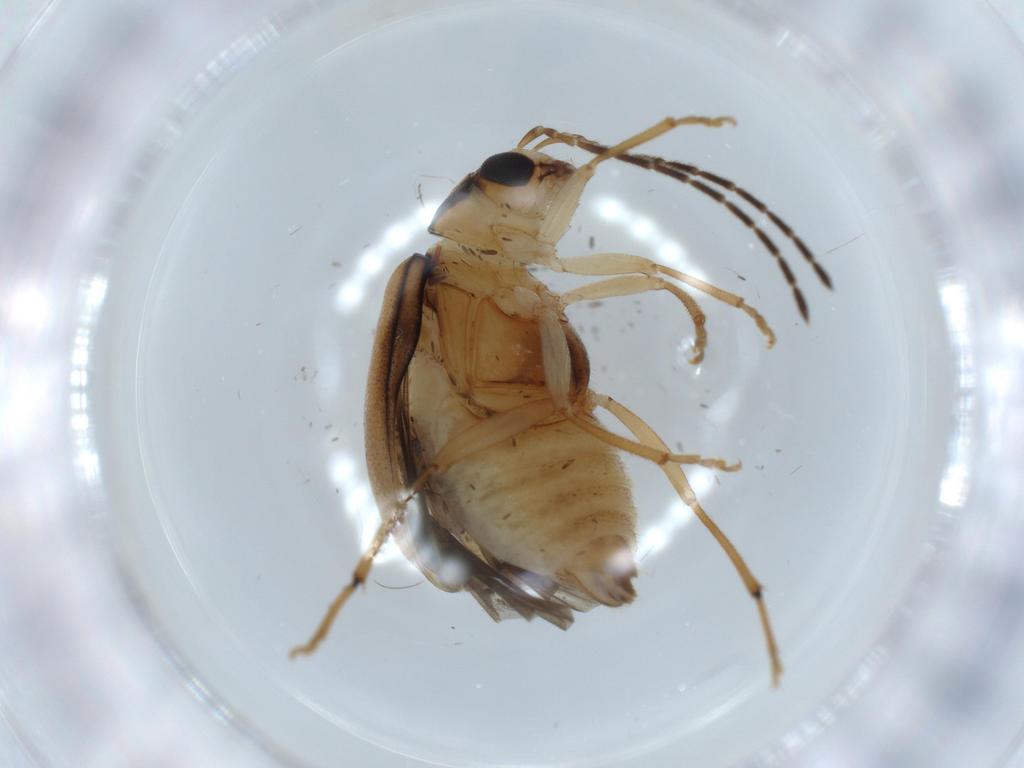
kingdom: Animalia
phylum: Arthropoda
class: Insecta
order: Coleoptera
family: Chrysomelidae
